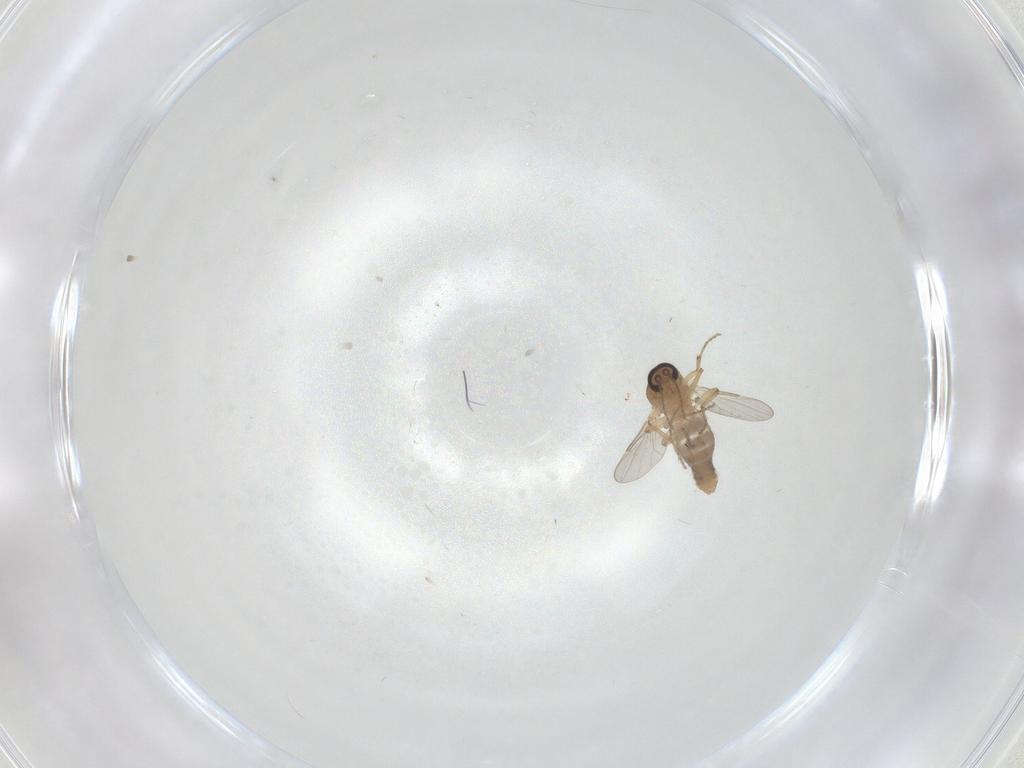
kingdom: Animalia
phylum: Arthropoda
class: Insecta
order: Diptera
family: Ceratopogonidae
